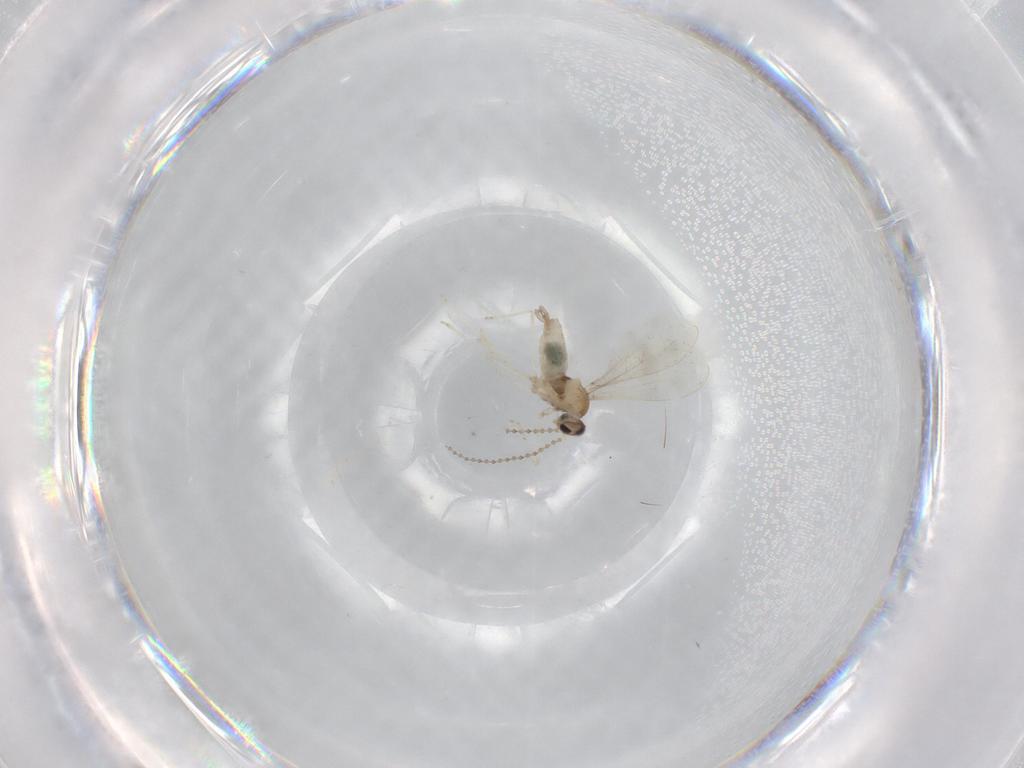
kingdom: Animalia
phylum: Arthropoda
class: Insecta
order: Diptera
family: Cecidomyiidae
